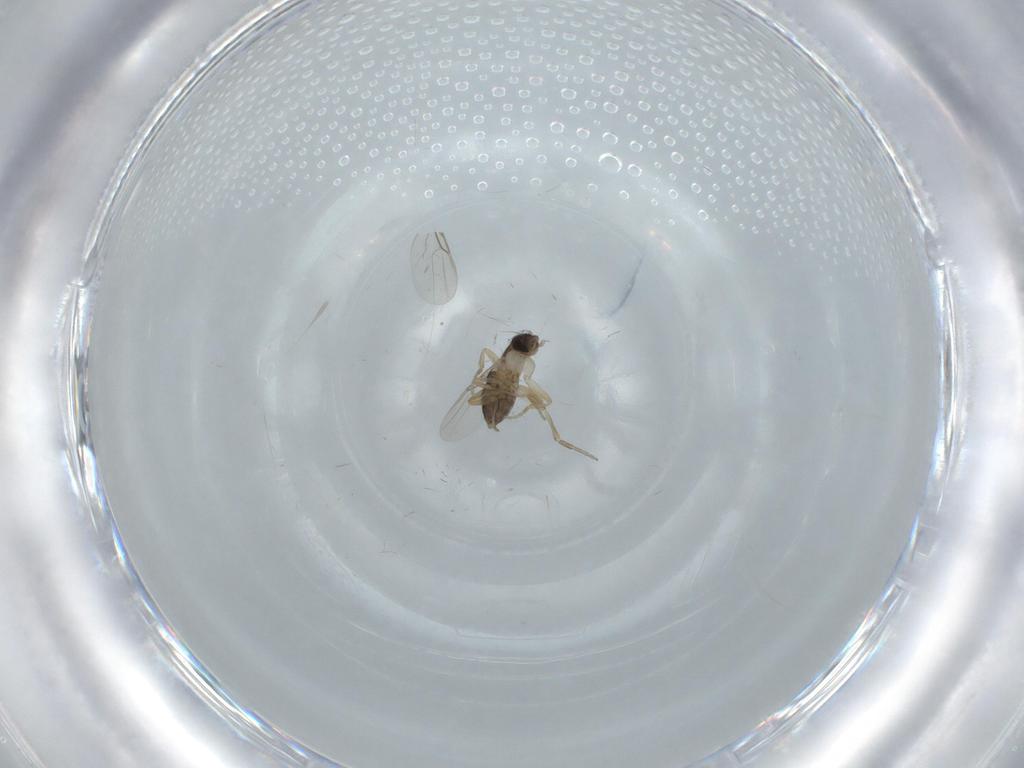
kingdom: Animalia
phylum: Arthropoda
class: Insecta
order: Diptera
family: Phoridae
